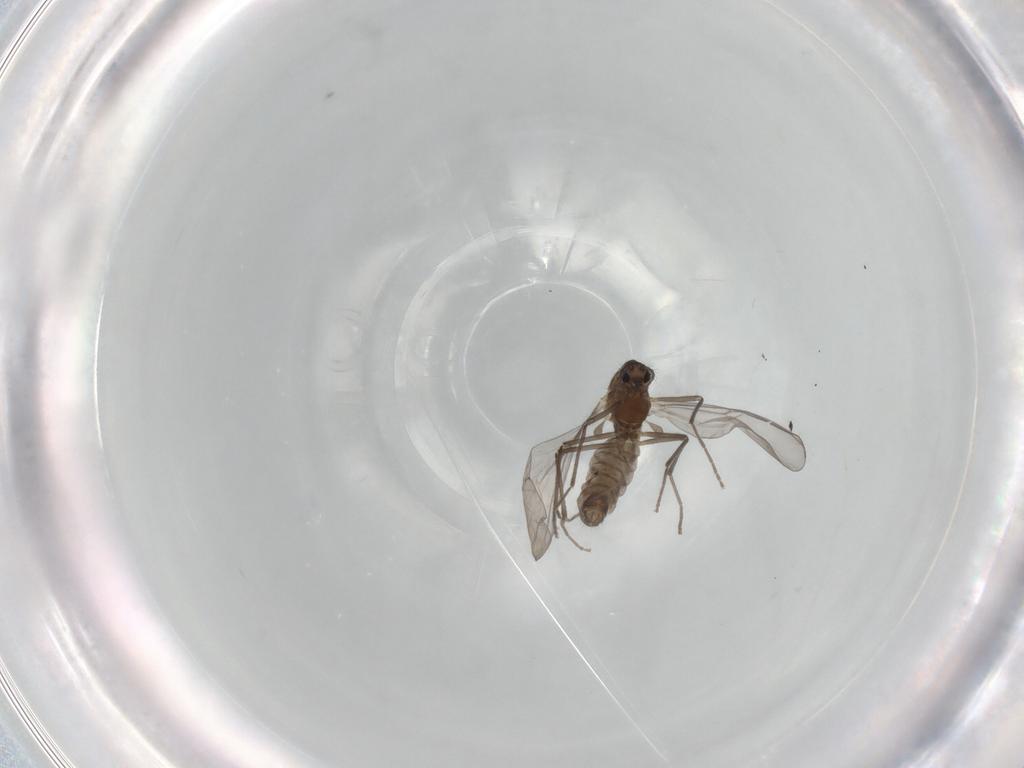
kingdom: Animalia
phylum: Arthropoda
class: Insecta
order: Diptera
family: Chironomidae
